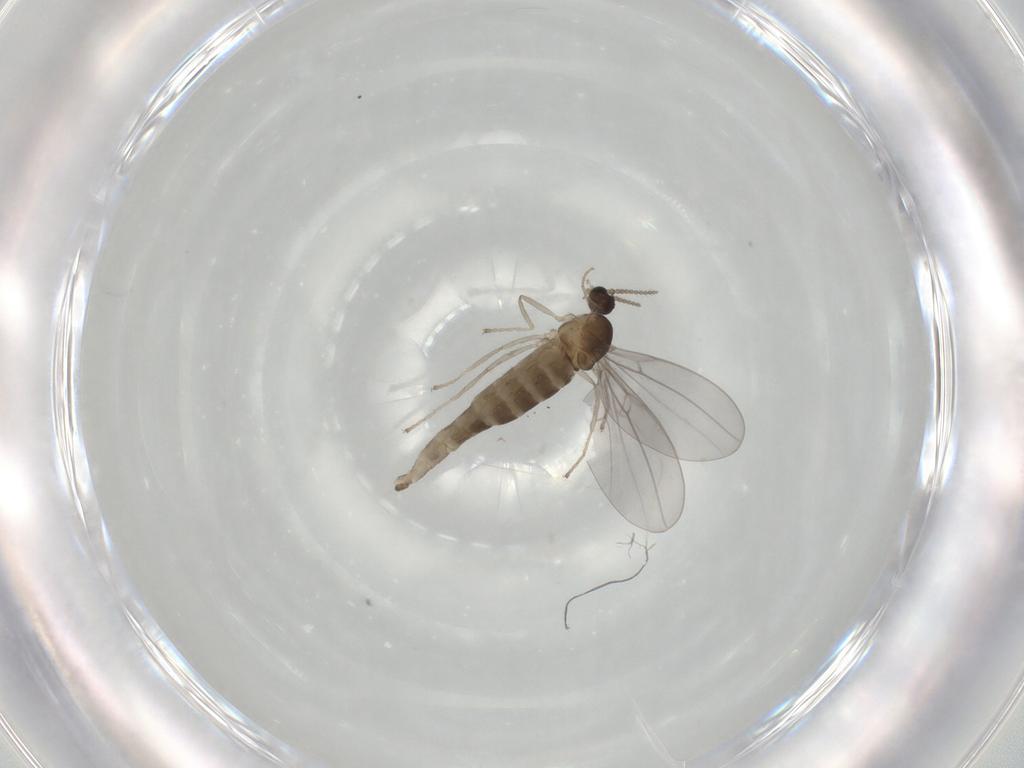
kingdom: Animalia
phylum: Arthropoda
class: Insecta
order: Diptera
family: Cecidomyiidae
